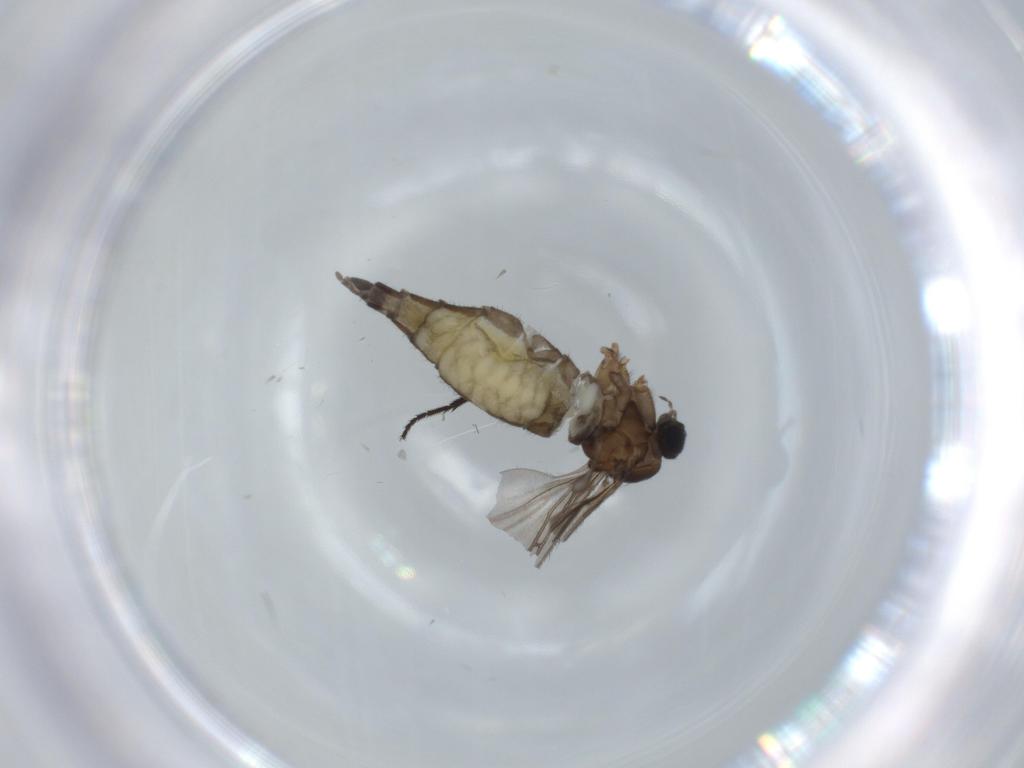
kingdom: Animalia
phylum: Arthropoda
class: Insecta
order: Diptera
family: Sciaridae
